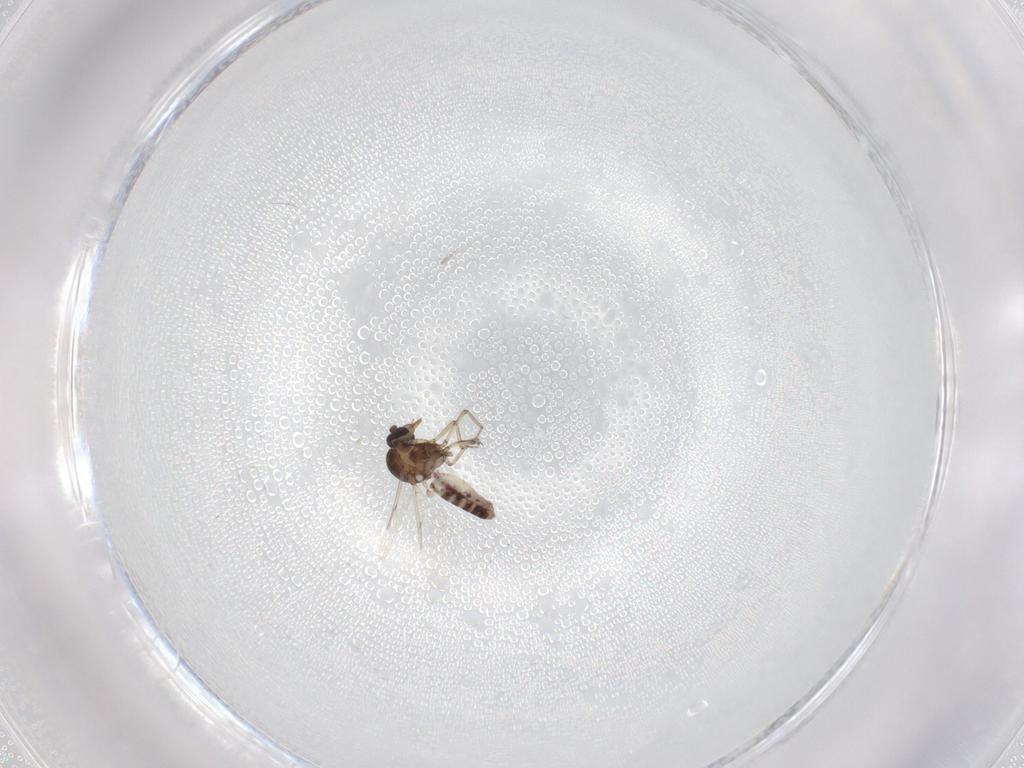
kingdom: Animalia
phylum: Arthropoda
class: Insecta
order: Diptera
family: Ceratopogonidae
